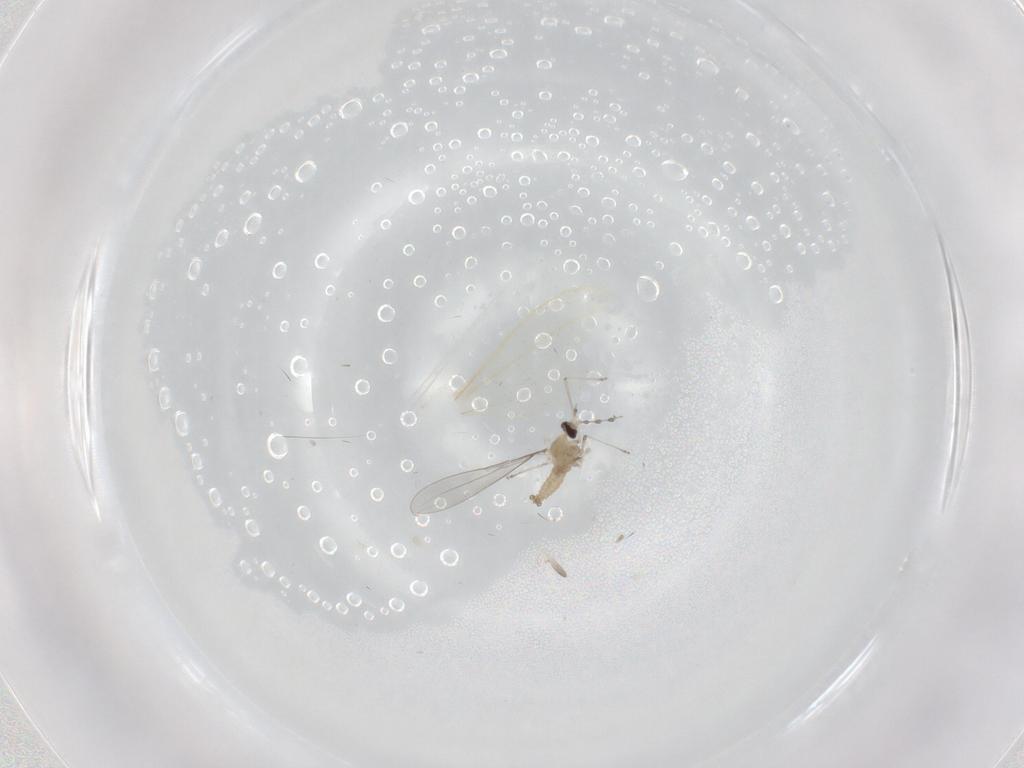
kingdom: Animalia
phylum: Arthropoda
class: Insecta
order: Diptera
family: Cecidomyiidae
